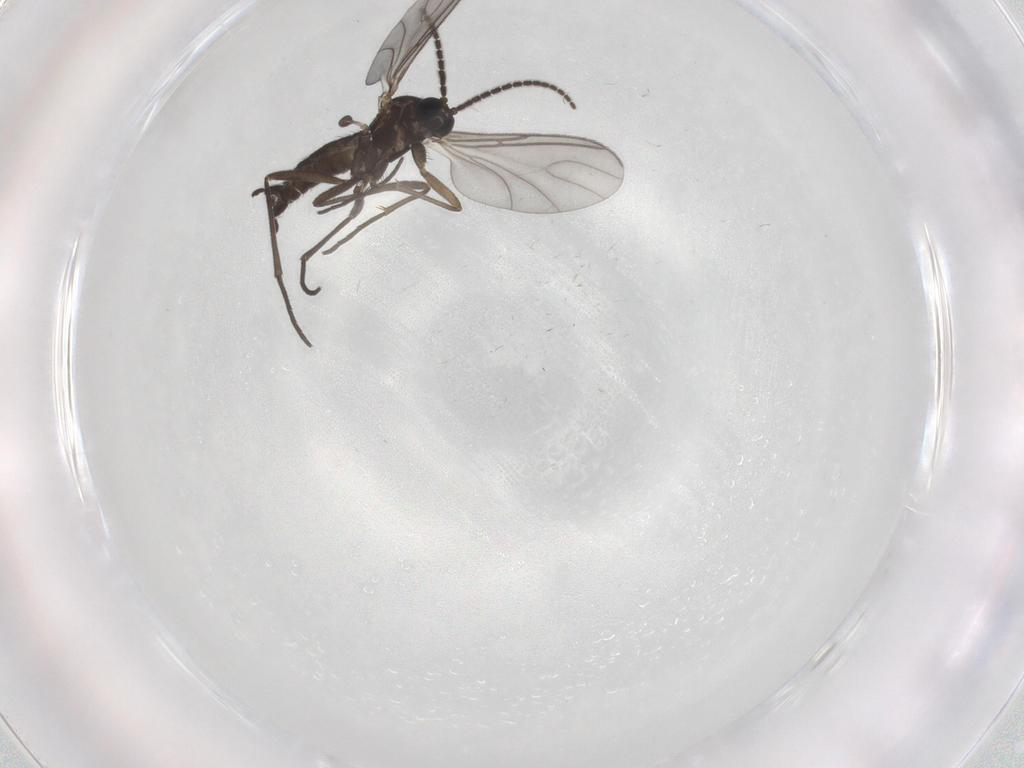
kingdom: Animalia
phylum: Arthropoda
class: Insecta
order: Diptera
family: Sciaridae
